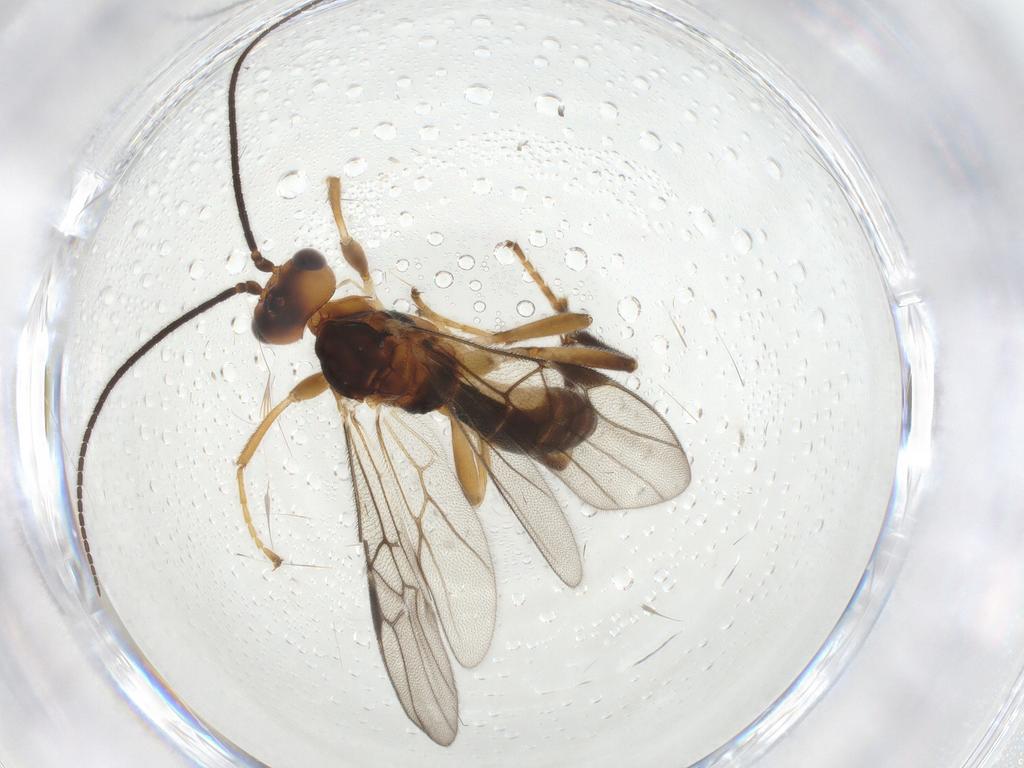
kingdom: Animalia
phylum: Arthropoda
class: Insecta
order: Hymenoptera
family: Braconidae
